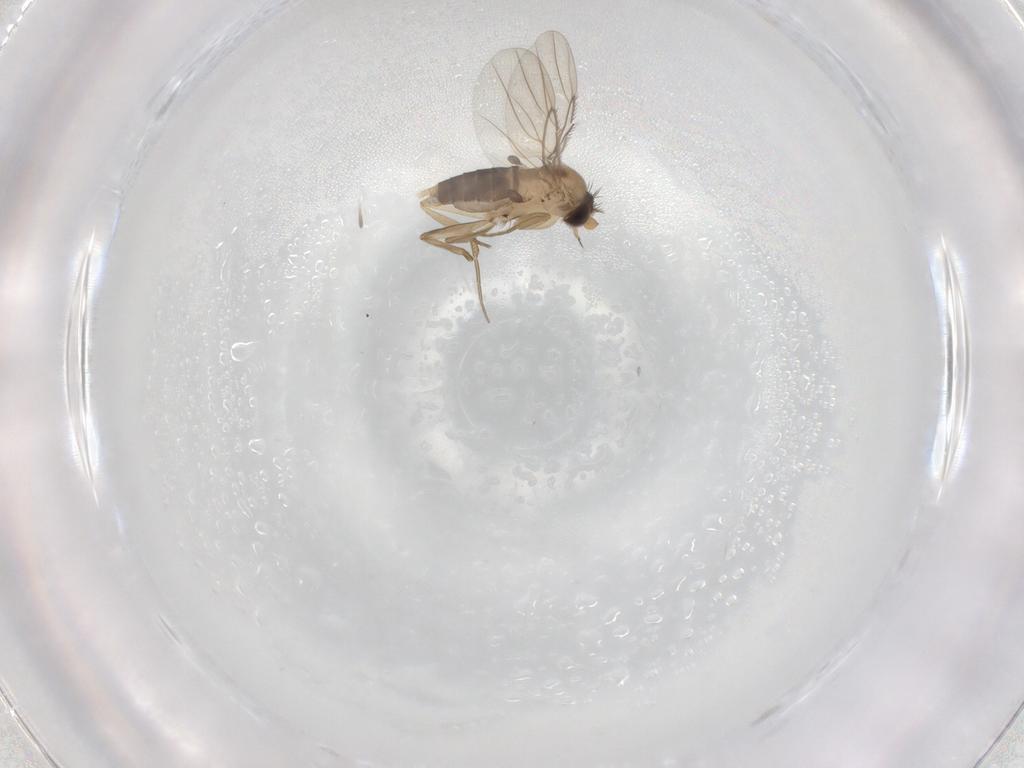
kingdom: Animalia
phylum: Arthropoda
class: Insecta
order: Diptera
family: Phoridae
